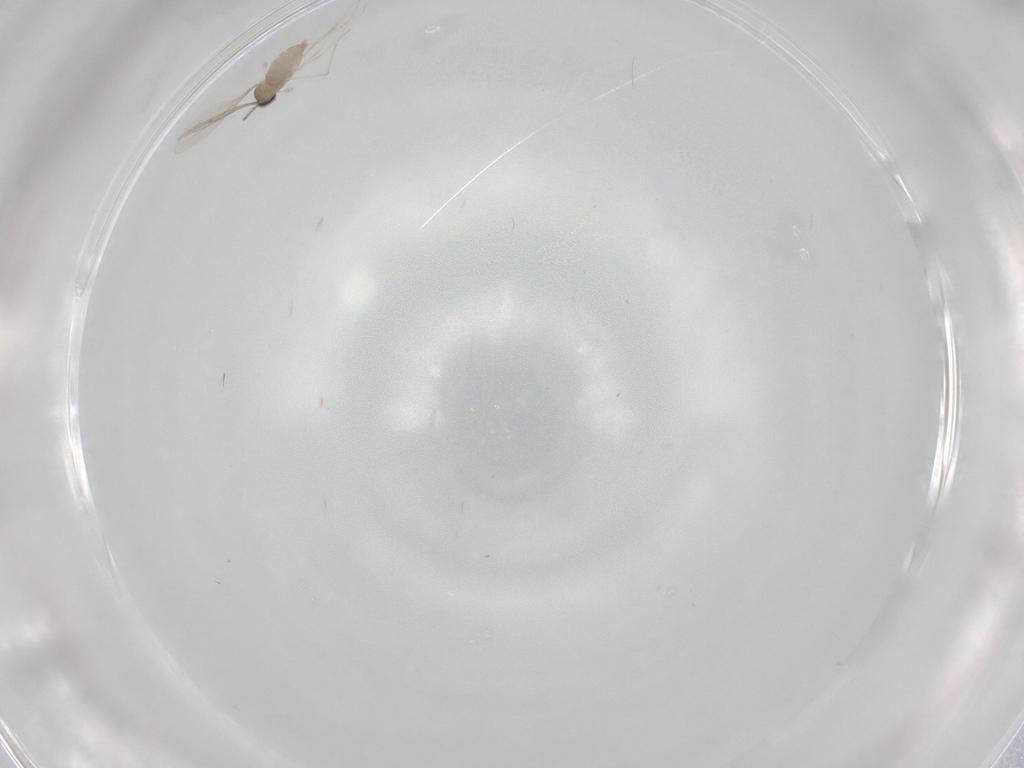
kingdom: Animalia
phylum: Arthropoda
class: Insecta
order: Diptera
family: Cecidomyiidae
